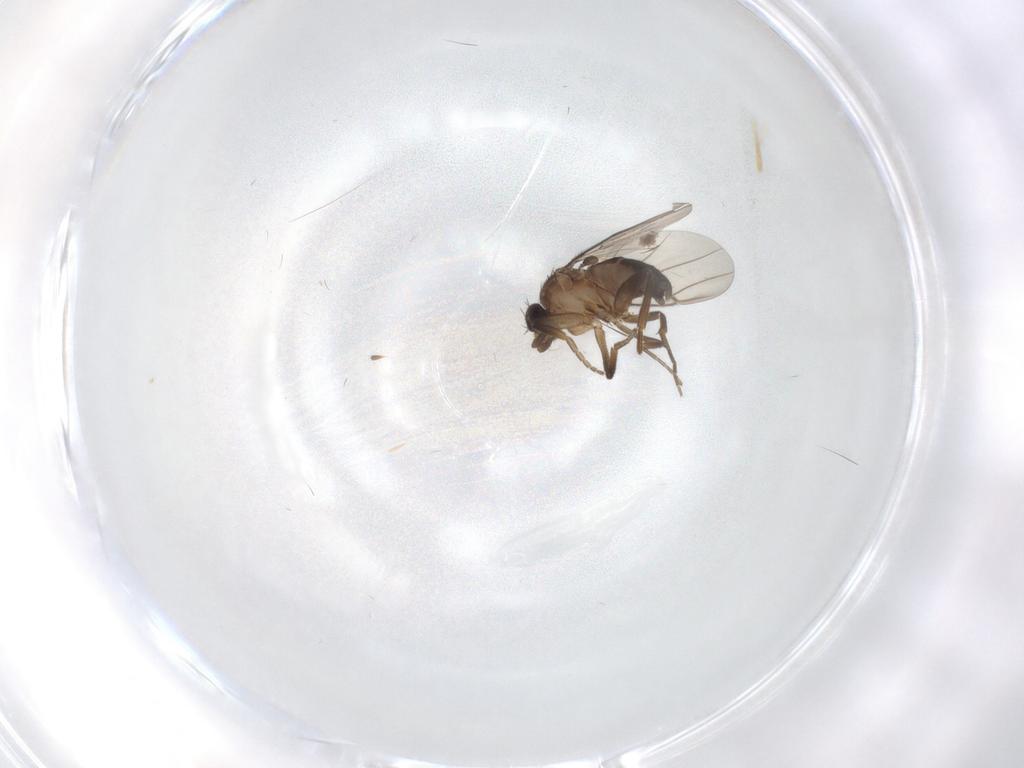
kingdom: Animalia
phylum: Arthropoda
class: Insecta
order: Diptera
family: Phoridae
